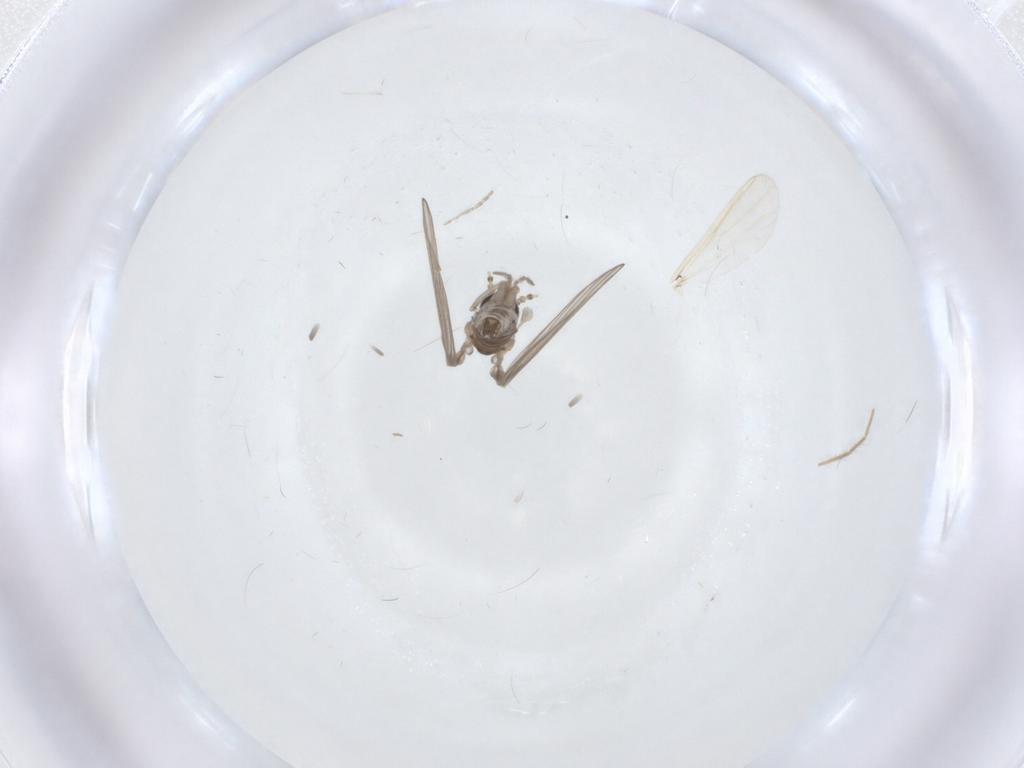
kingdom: Animalia
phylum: Arthropoda
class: Insecta
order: Diptera
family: Psychodidae
